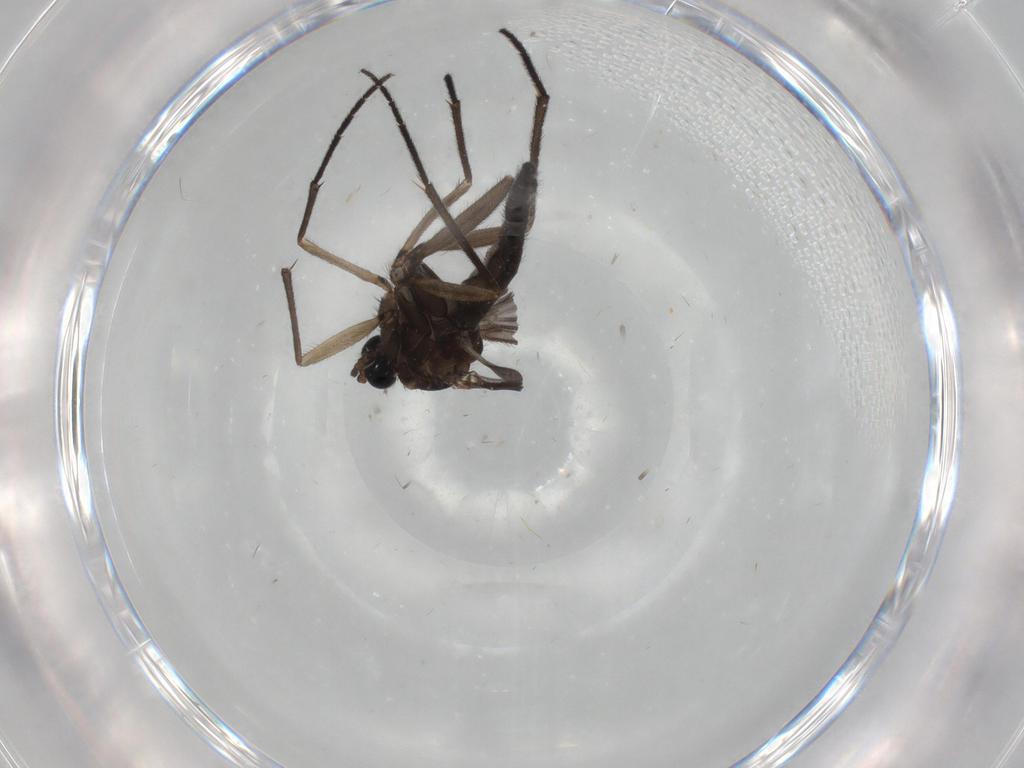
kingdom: Animalia
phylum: Arthropoda
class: Insecta
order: Diptera
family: Sciaridae
